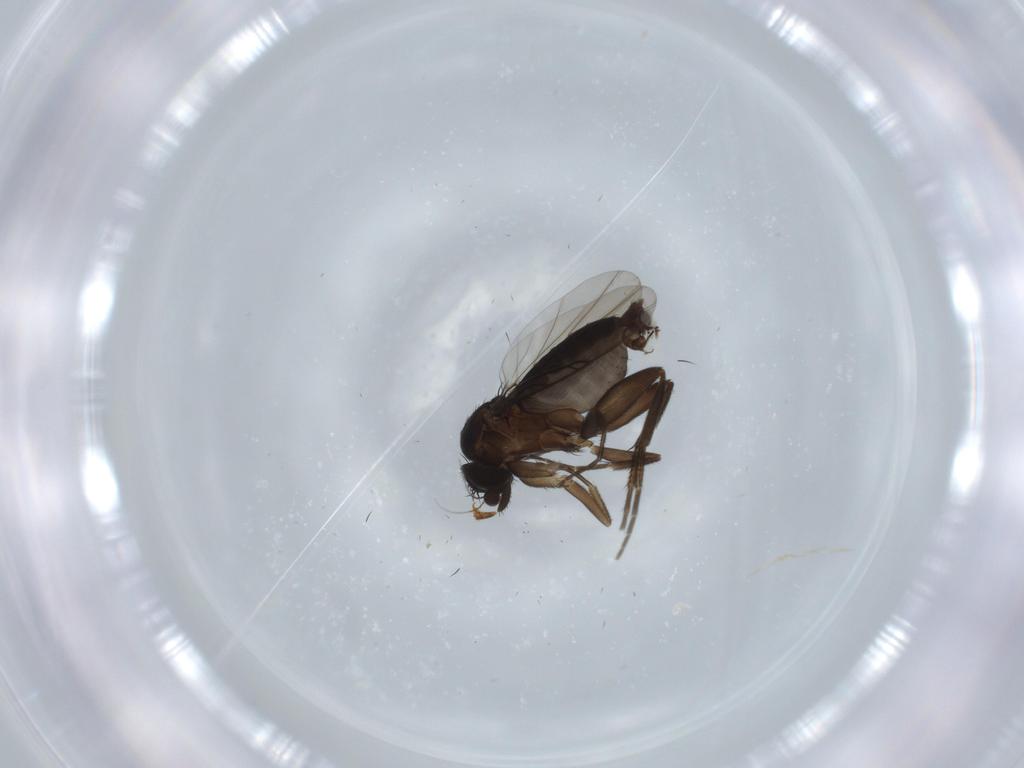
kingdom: Animalia
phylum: Arthropoda
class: Insecta
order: Diptera
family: Phoridae
